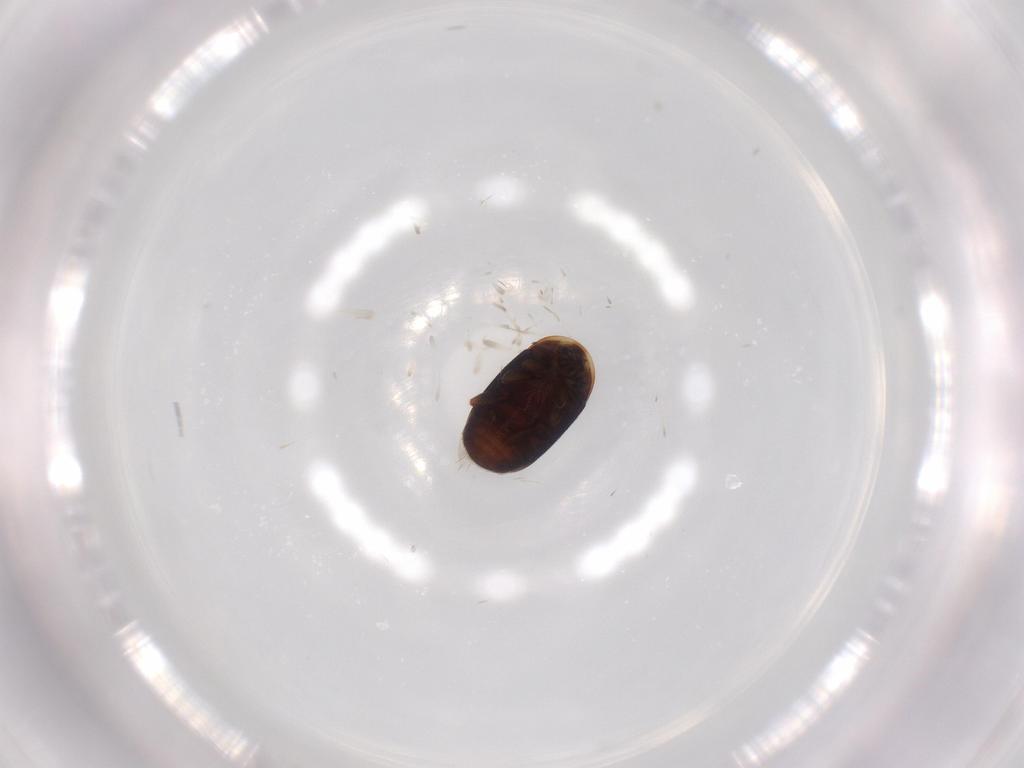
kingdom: Animalia
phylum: Arthropoda
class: Insecta
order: Coleoptera
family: Corylophidae
